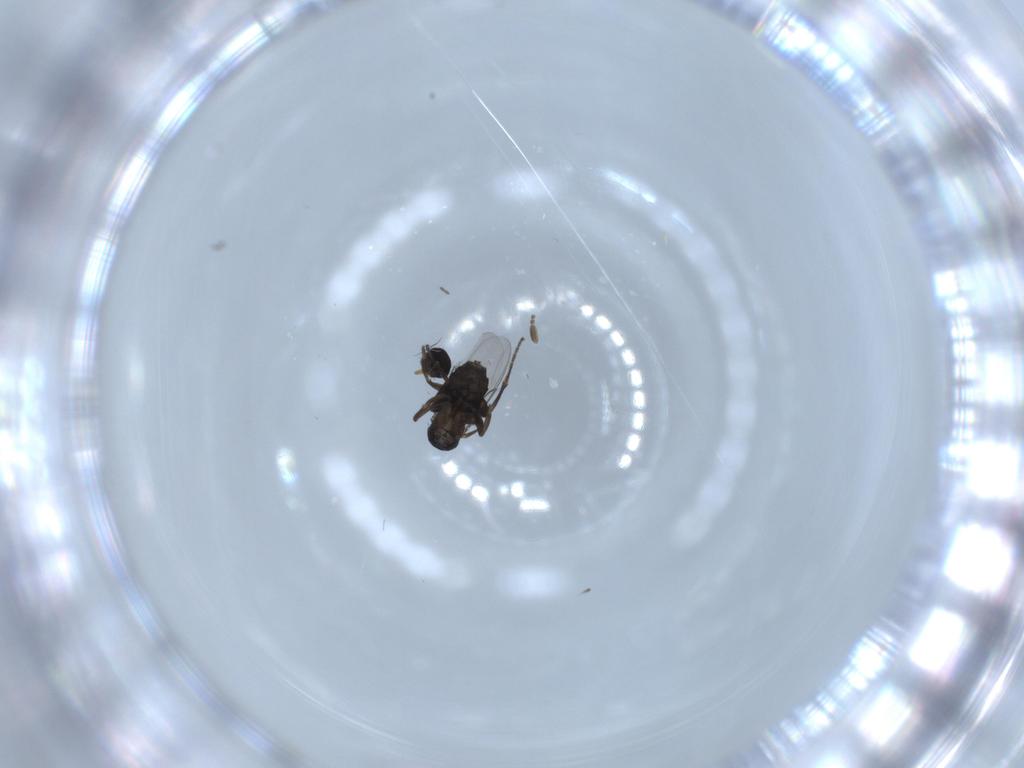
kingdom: Animalia
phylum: Arthropoda
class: Insecta
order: Diptera
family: Phoridae
